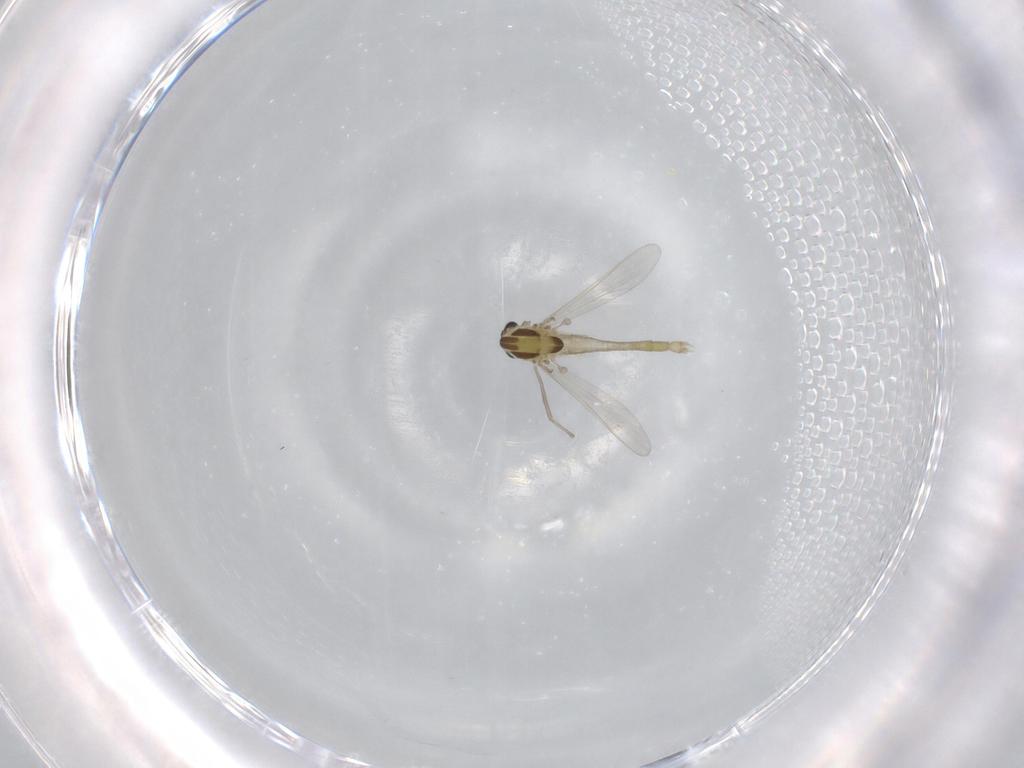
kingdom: Animalia
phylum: Arthropoda
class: Insecta
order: Diptera
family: Chironomidae
